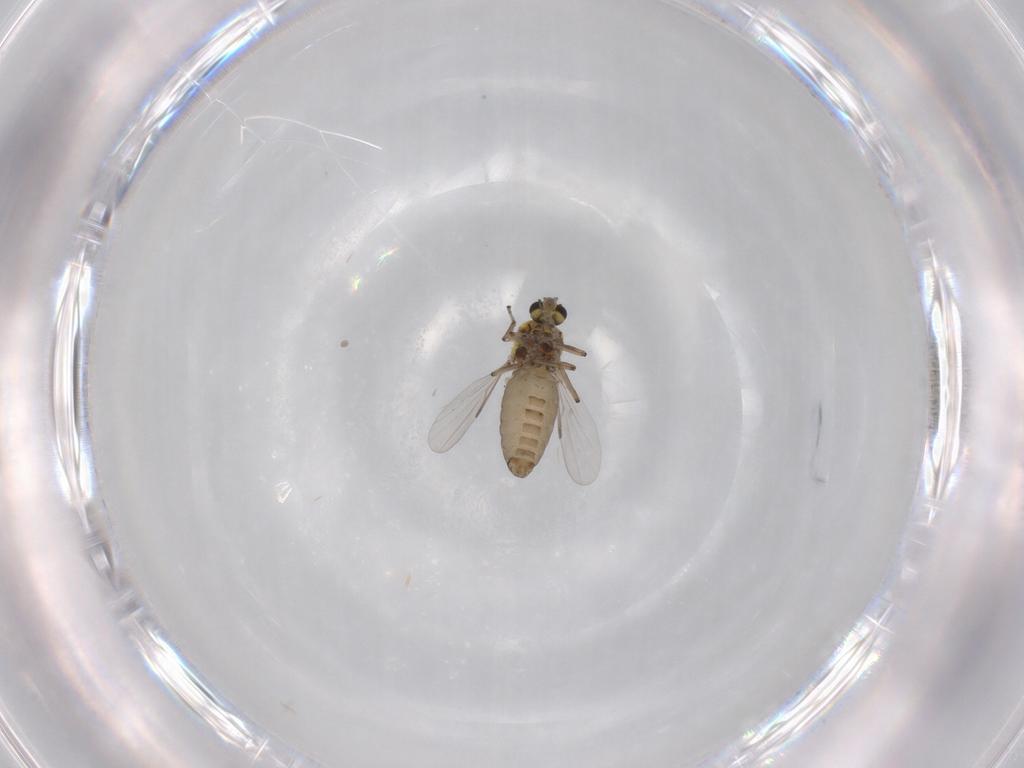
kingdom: Animalia
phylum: Arthropoda
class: Insecta
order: Diptera
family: Ceratopogonidae
